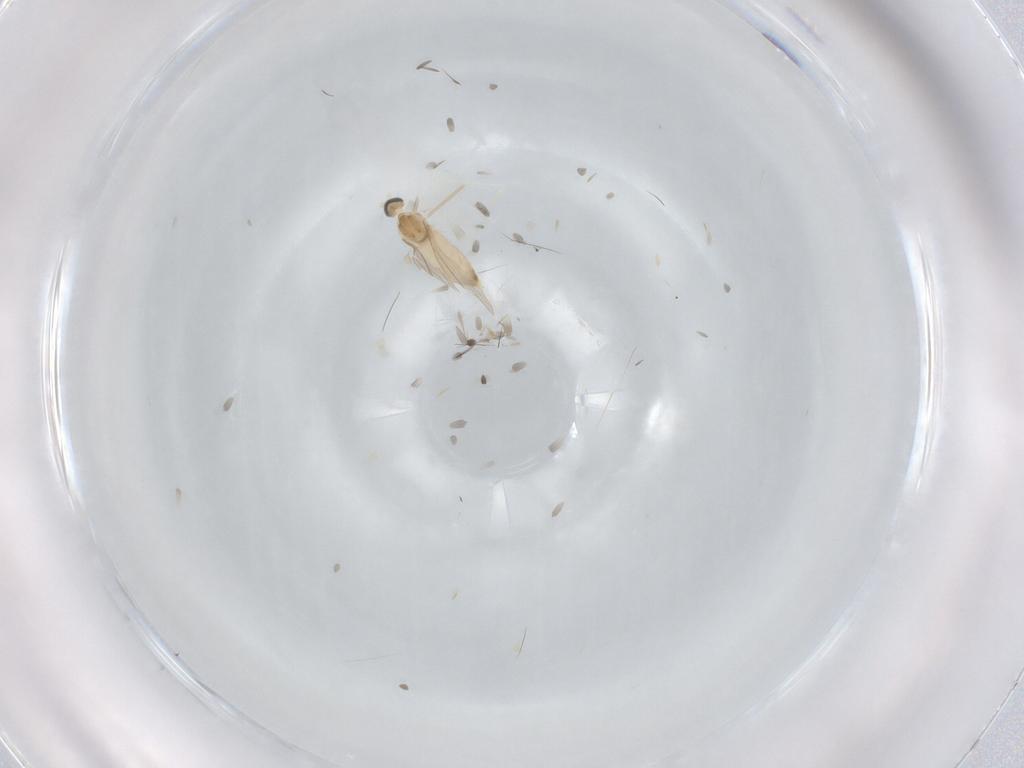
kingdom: Animalia
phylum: Arthropoda
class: Insecta
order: Diptera
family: Cecidomyiidae
